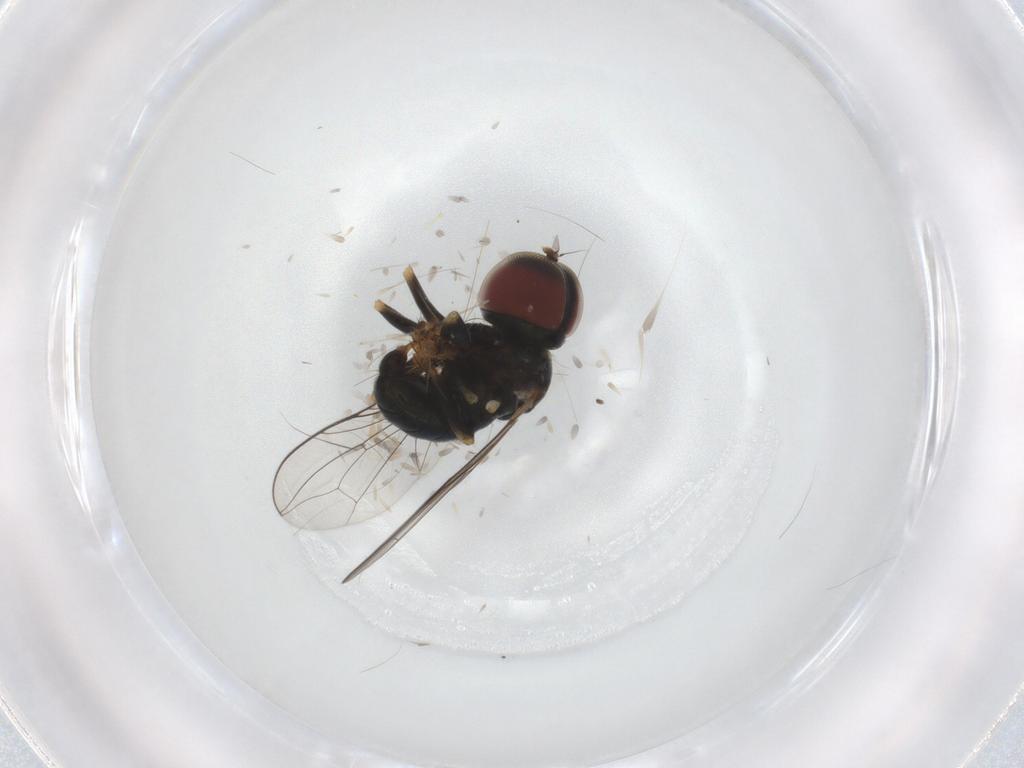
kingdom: Animalia
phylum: Arthropoda
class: Insecta
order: Diptera
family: Pipunculidae
